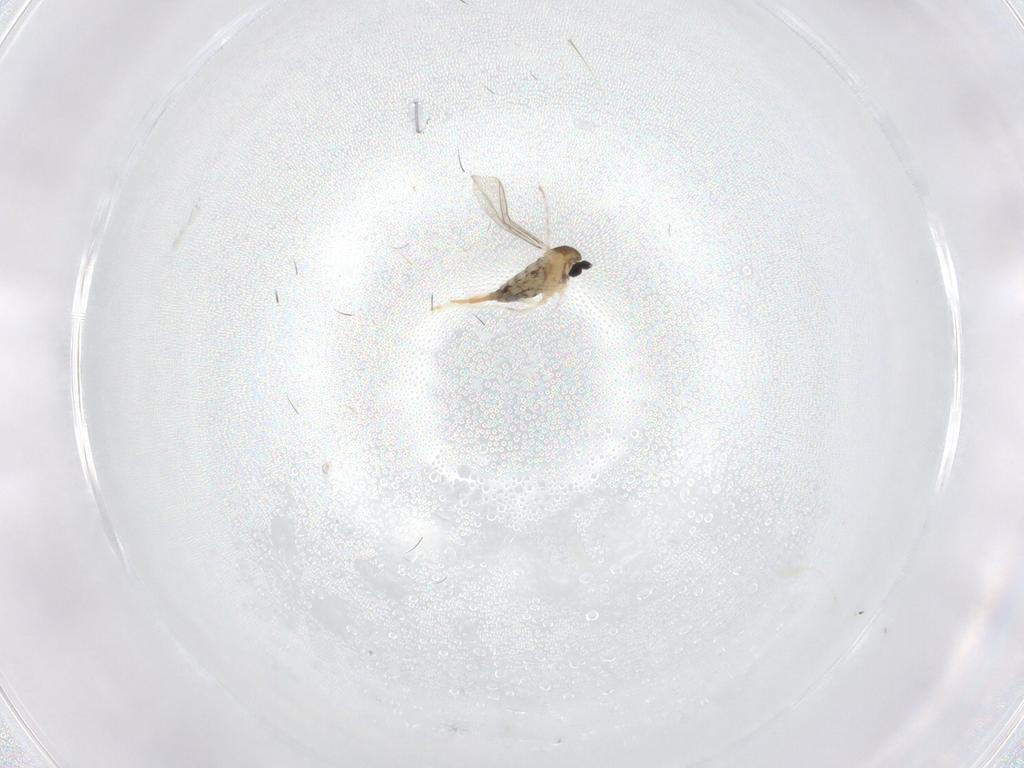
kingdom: Animalia
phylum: Arthropoda
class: Insecta
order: Diptera
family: Cecidomyiidae
